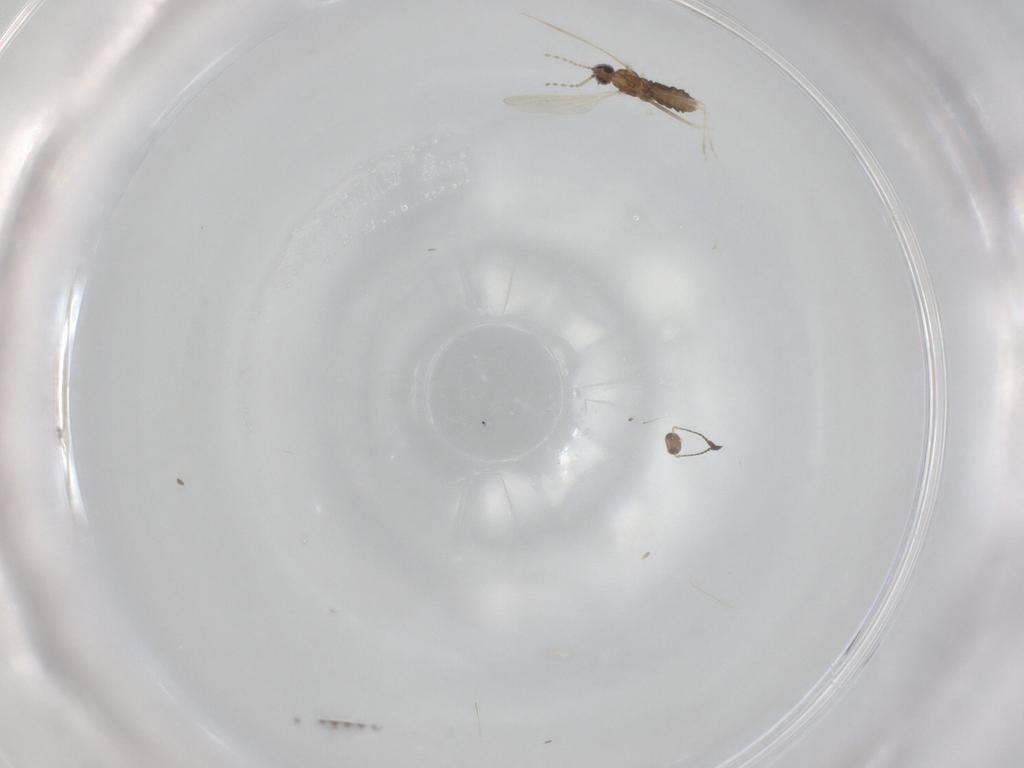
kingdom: Animalia
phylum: Arthropoda
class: Insecta
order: Diptera
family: Cecidomyiidae
